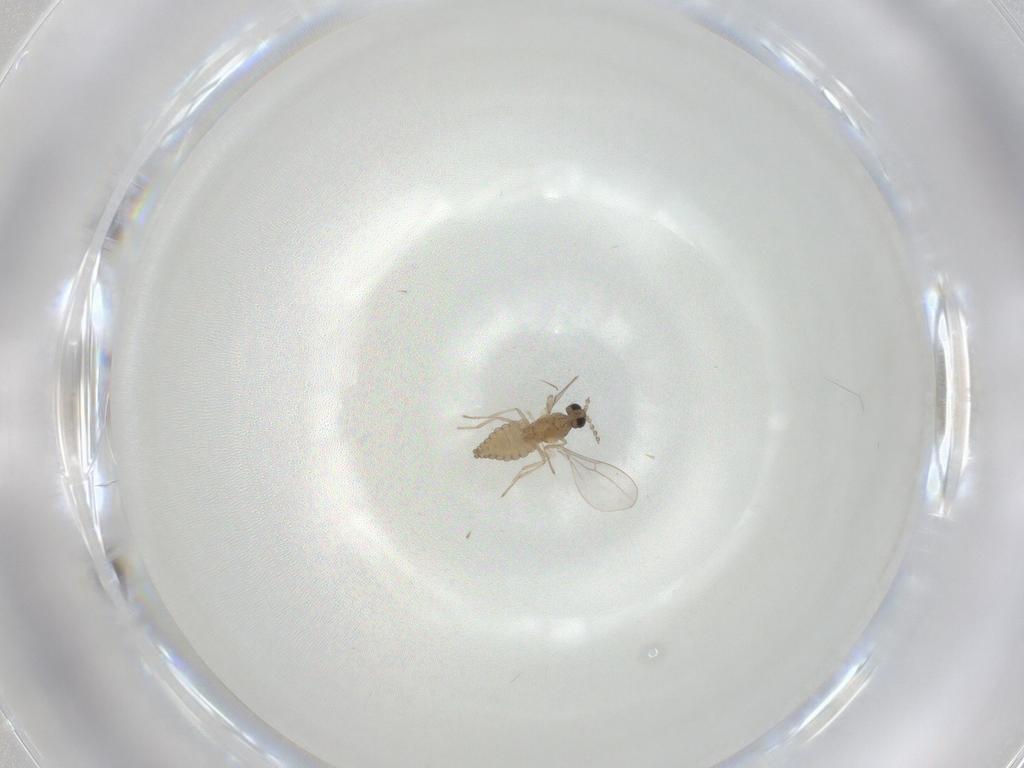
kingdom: Animalia
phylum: Arthropoda
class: Insecta
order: Diptera
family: Cecidomyiidae
